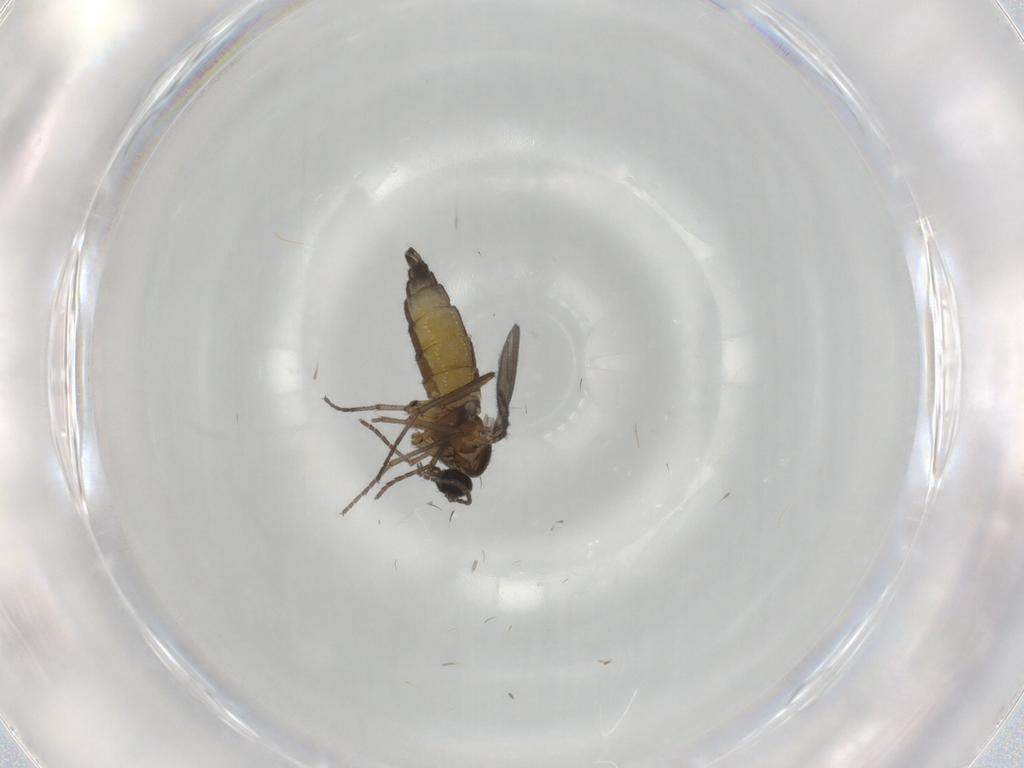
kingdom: Animalia
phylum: Arthropoda
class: Insecta
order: Diptera
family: Sciaridae
